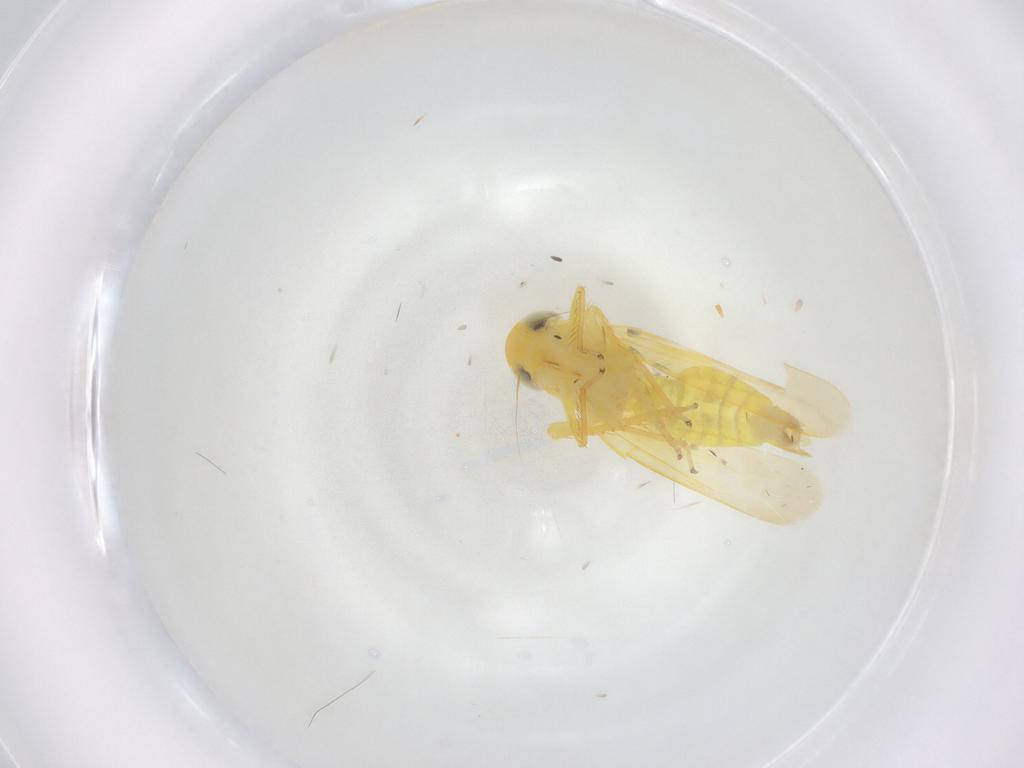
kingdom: Animalia
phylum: Arthropoda
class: Insecta
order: Hemiptera
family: Cicadellidae
